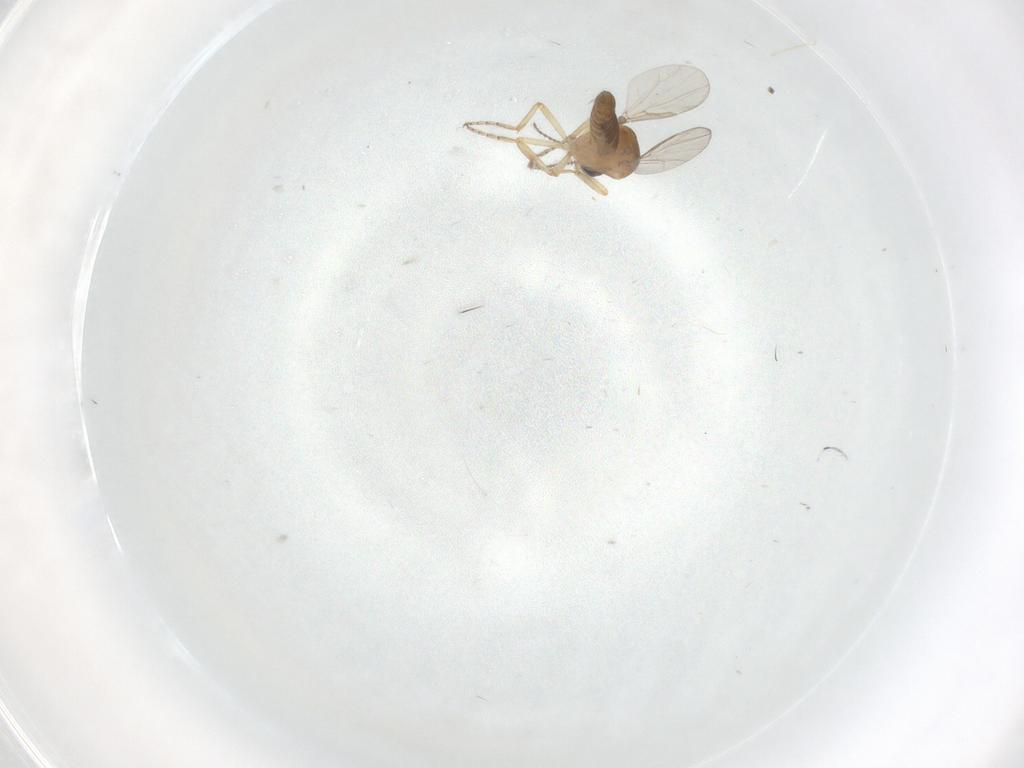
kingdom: Animalia
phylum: Arthropoda
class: Insecta
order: Diptera
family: Ceratopogonidae
